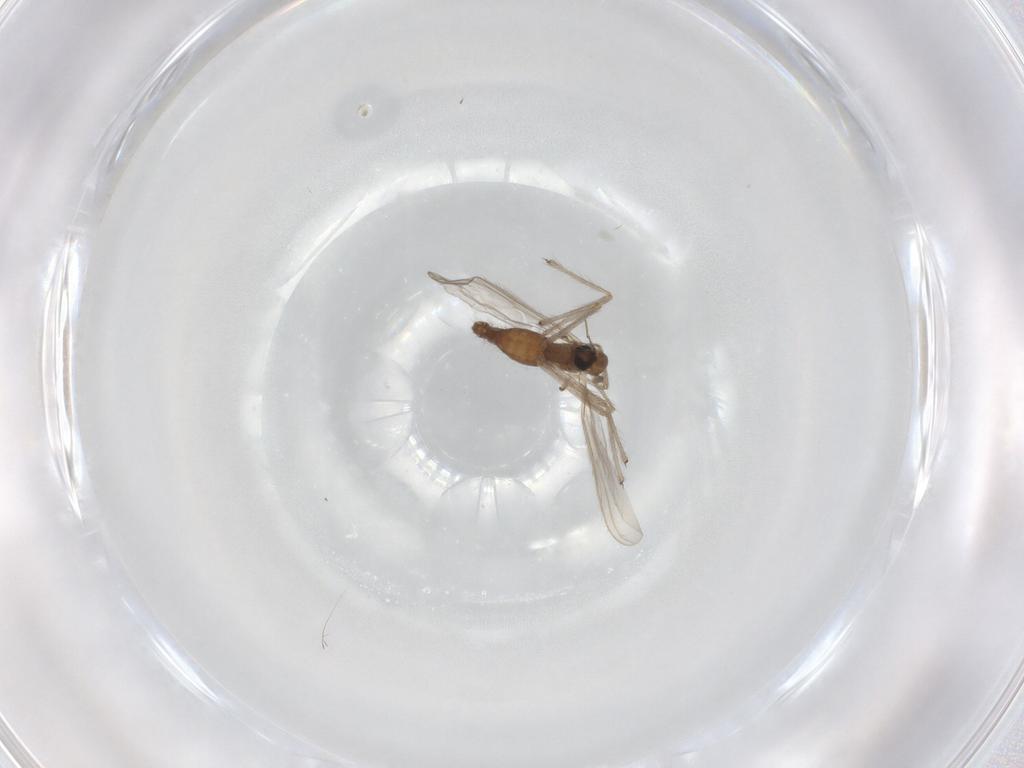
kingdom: Animalia
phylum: Arthropoda
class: Insecta
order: Diptera
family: Chironomidae
